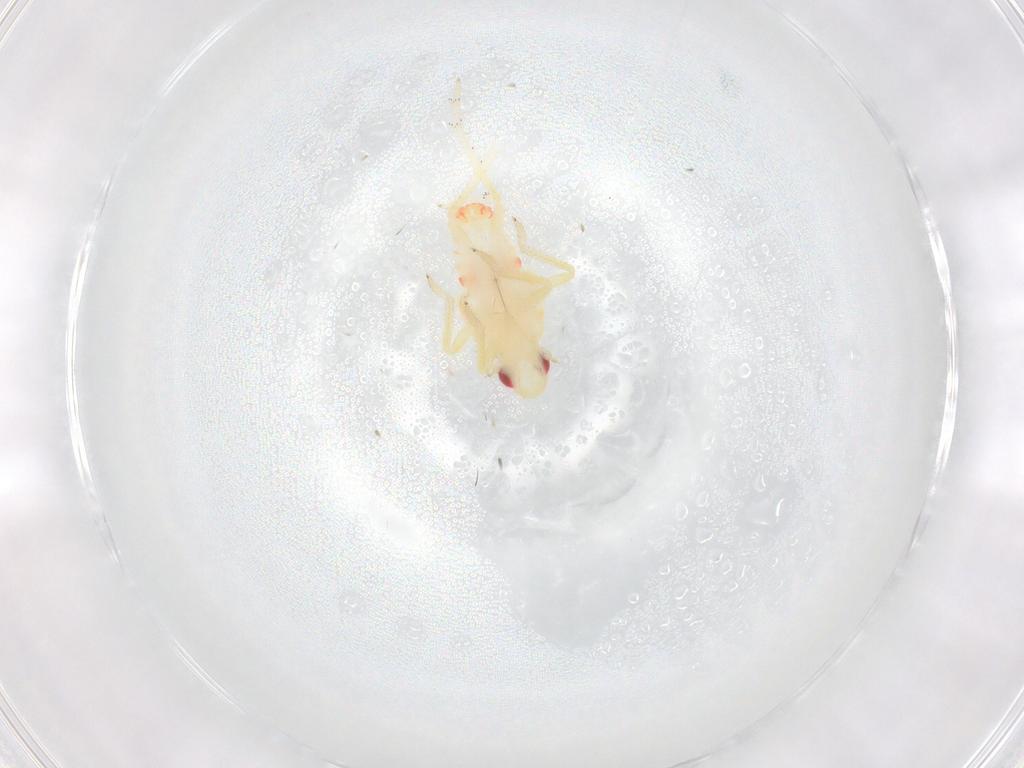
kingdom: Animalia
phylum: Arthropoda
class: Insecta
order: Hemiptera
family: Tropiduchidae
